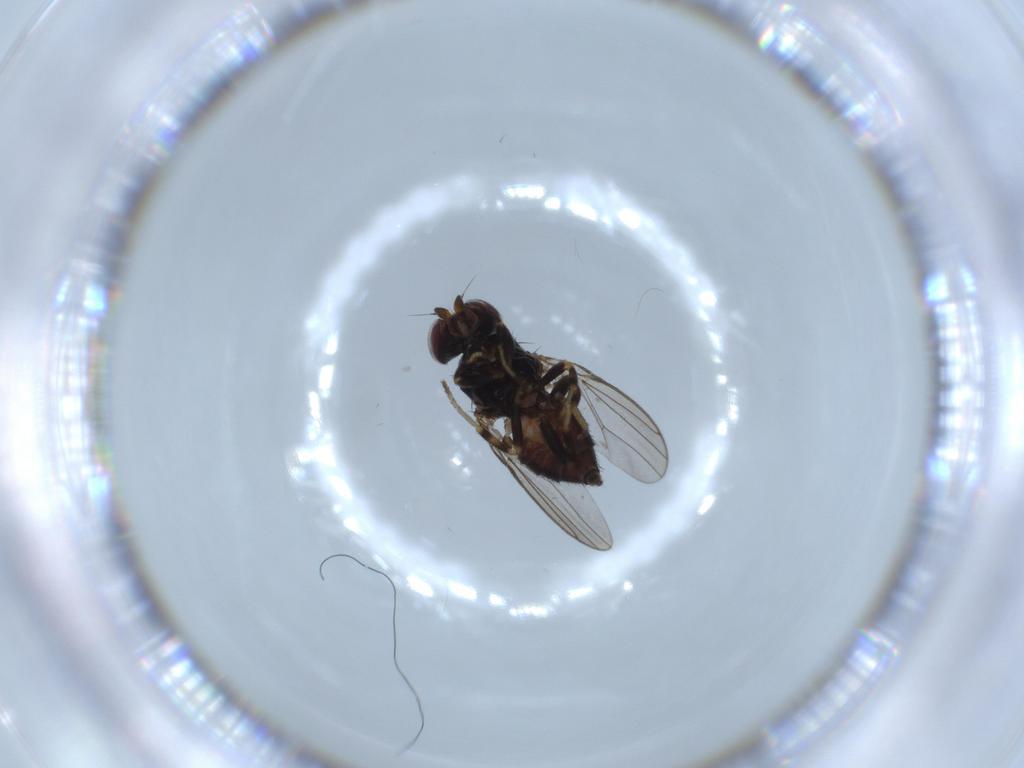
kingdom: Animalia
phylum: Arthropoda
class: Insecta
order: Diptera
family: Chloropidae
